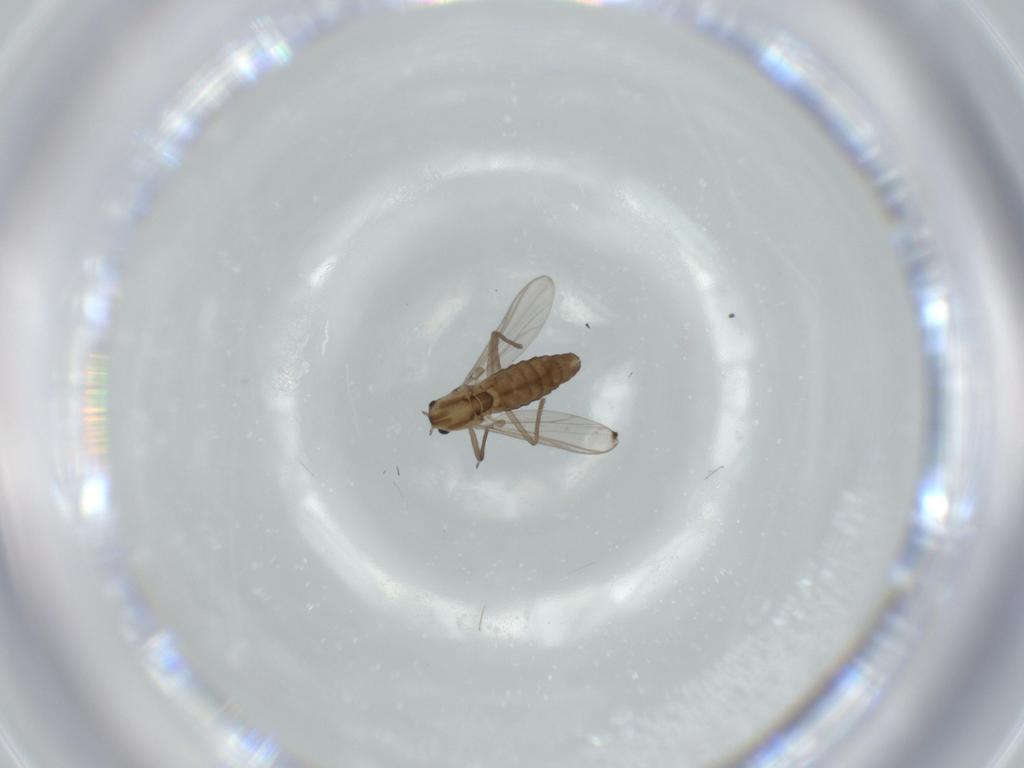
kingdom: Animalia
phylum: Arthropoda
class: Insecta
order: Diptera
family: Chironomidae
